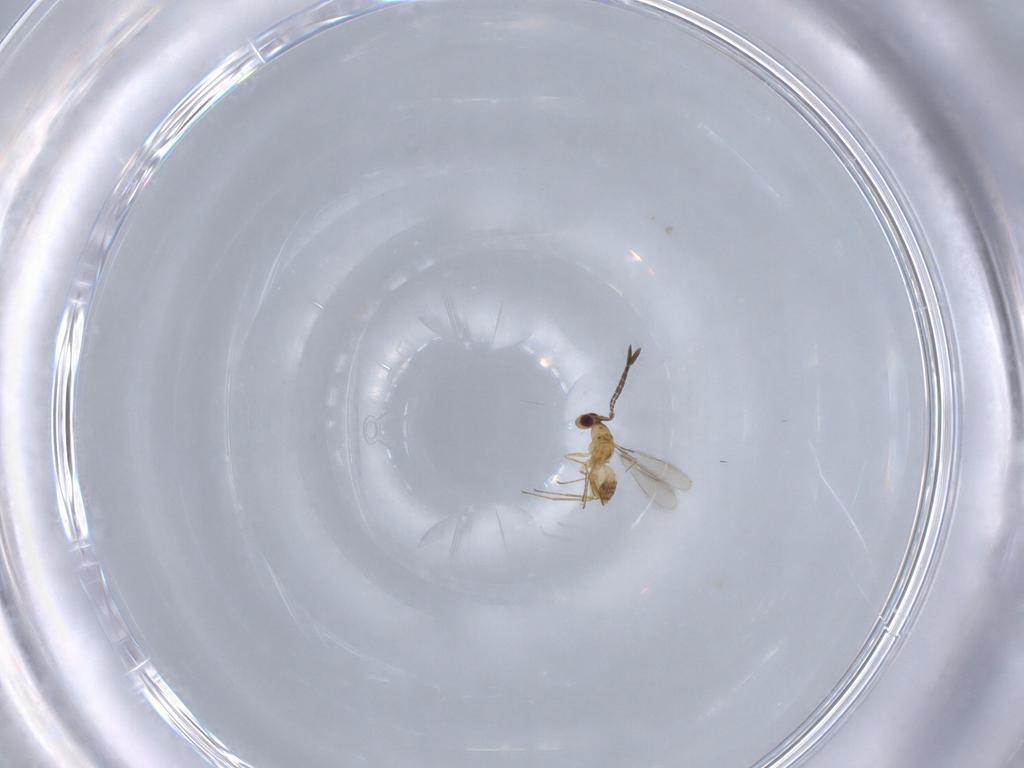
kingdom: Animalia
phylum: Arthropoda
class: Insecta
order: Hymenoptera
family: Mymaridae
